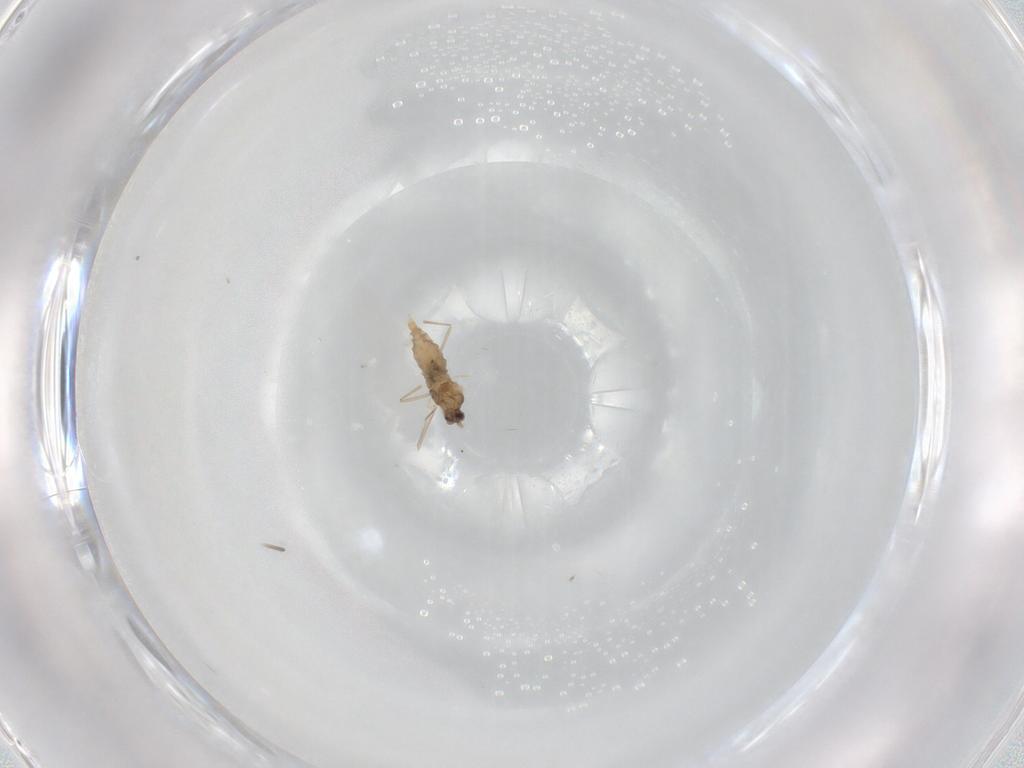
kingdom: Animalia
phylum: Arthropoda
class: Insecta
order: Diptera
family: Cecidomyiidae
